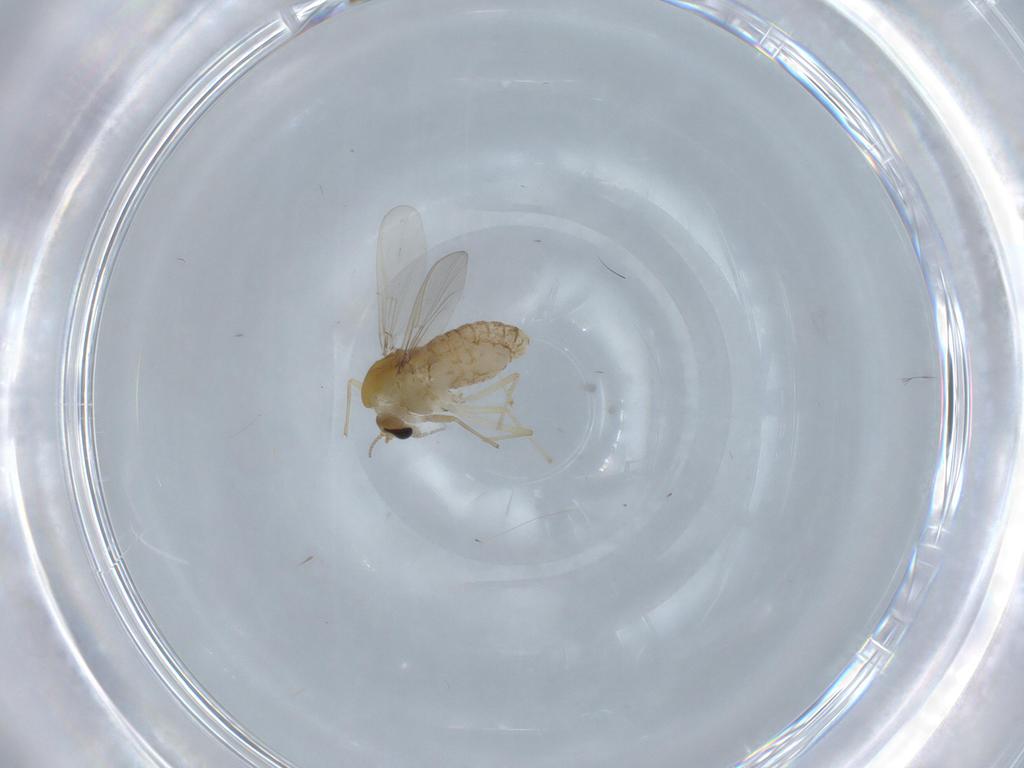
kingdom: Animalia
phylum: Arthropoda
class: Insecta
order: Diptera
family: Chironomidae
